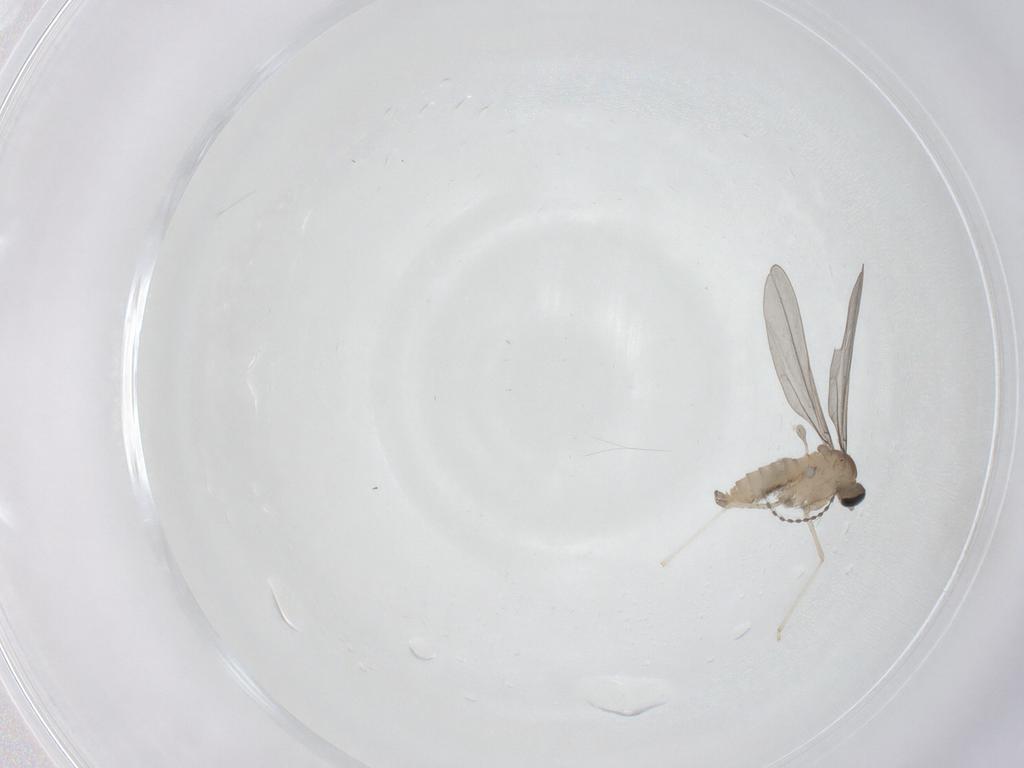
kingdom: Animalia
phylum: Arthropoda
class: Insecta
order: Diptera
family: Cecidomyiidae
